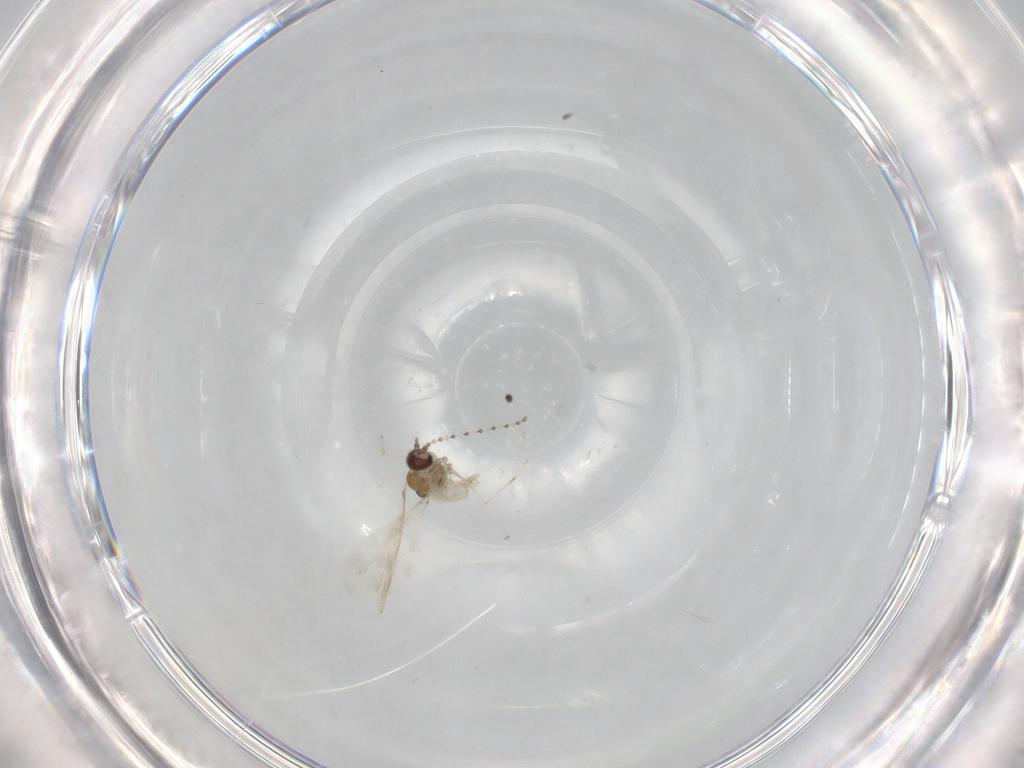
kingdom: Animalia
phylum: Arthropoda
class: Insecta
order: Diptera
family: Cecidomyiidae
